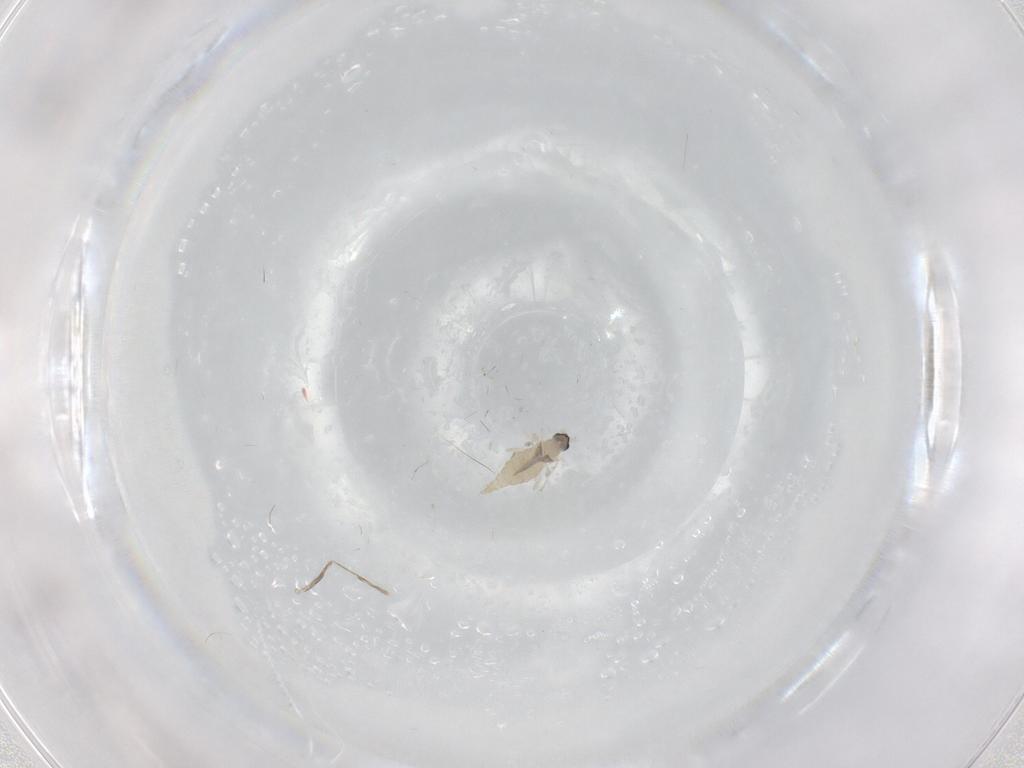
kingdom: Animalia
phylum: Arthropoda
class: Insecta
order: Diptera
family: Cecidomyiidae
